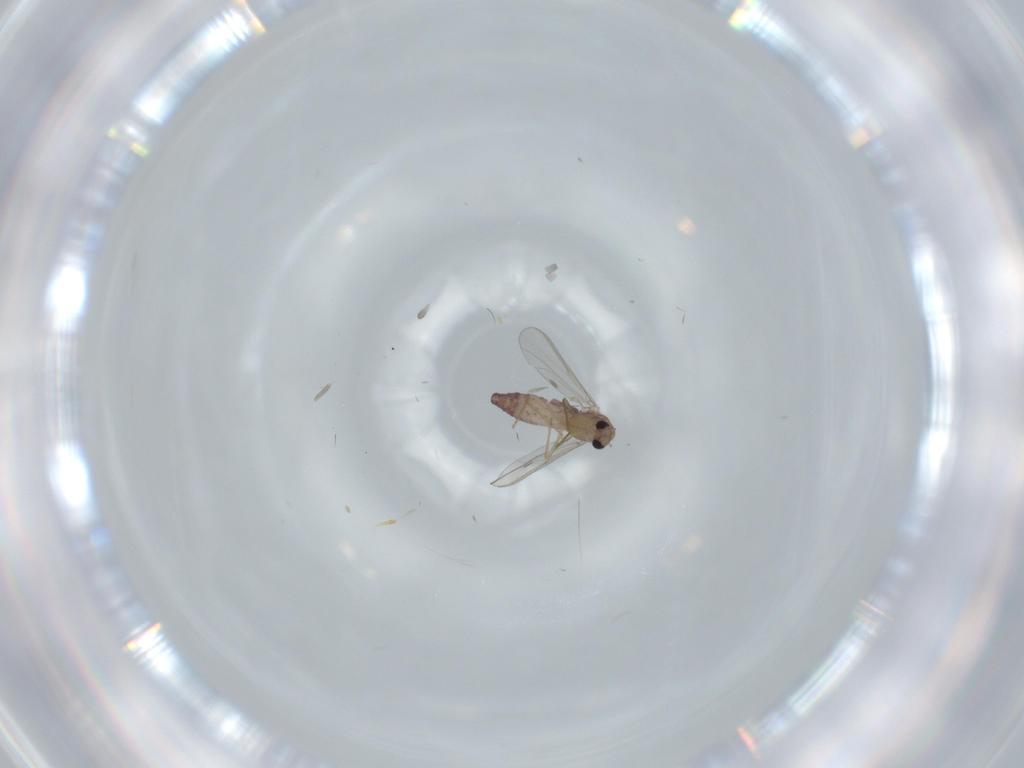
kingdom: Animalia
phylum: Arthropoda
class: Insecta
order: Diptera
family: Chironomidae
